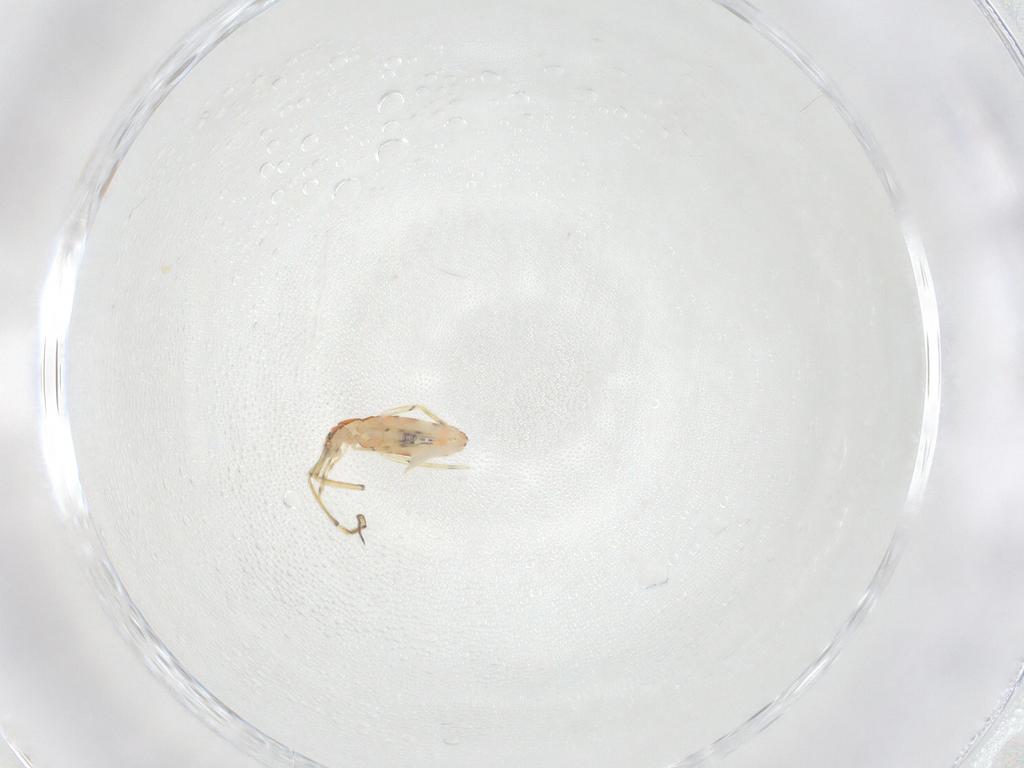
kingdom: Animalia
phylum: Arthropoda
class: Collembola
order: Entomobryomorpha
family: Paronellidae
